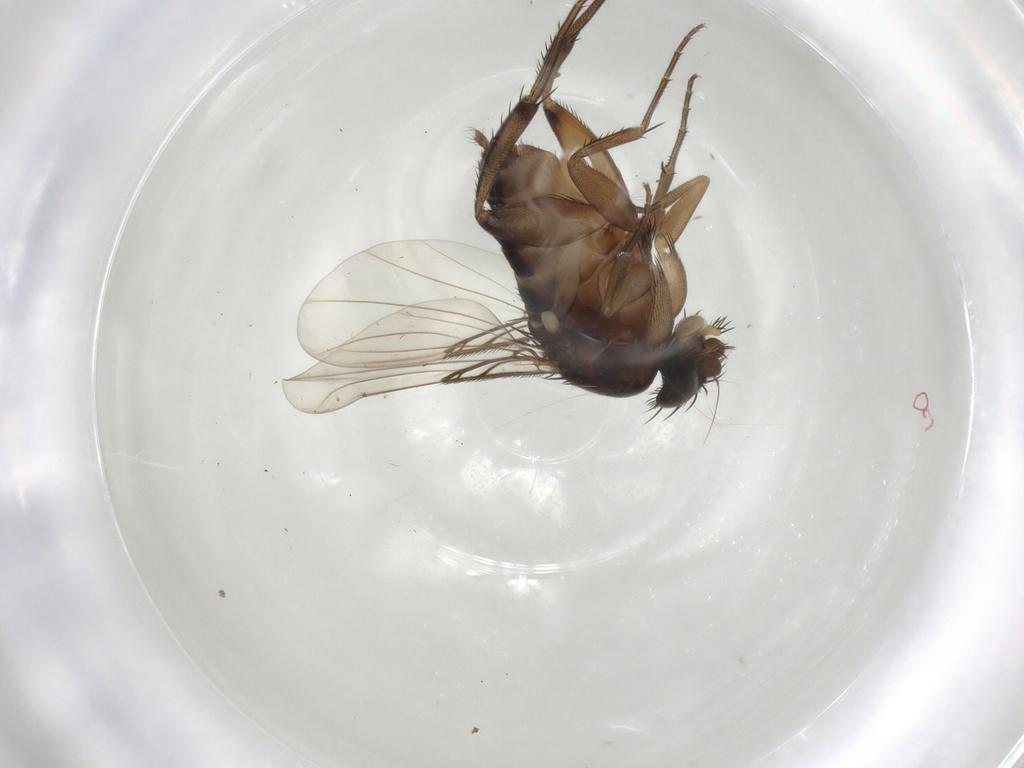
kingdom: Animalia
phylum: Arthropoda
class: Insecta
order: Diptera
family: Phoridae
